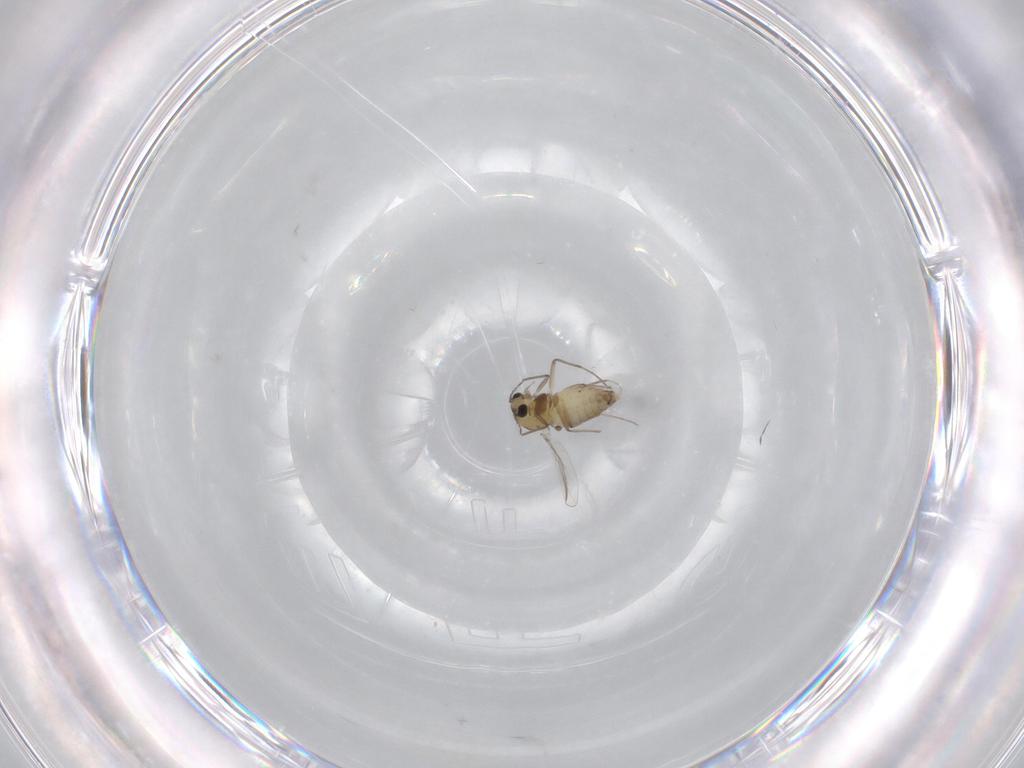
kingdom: Animalia
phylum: Arthropoda
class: Insecta
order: Diptera
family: Chironomidae
